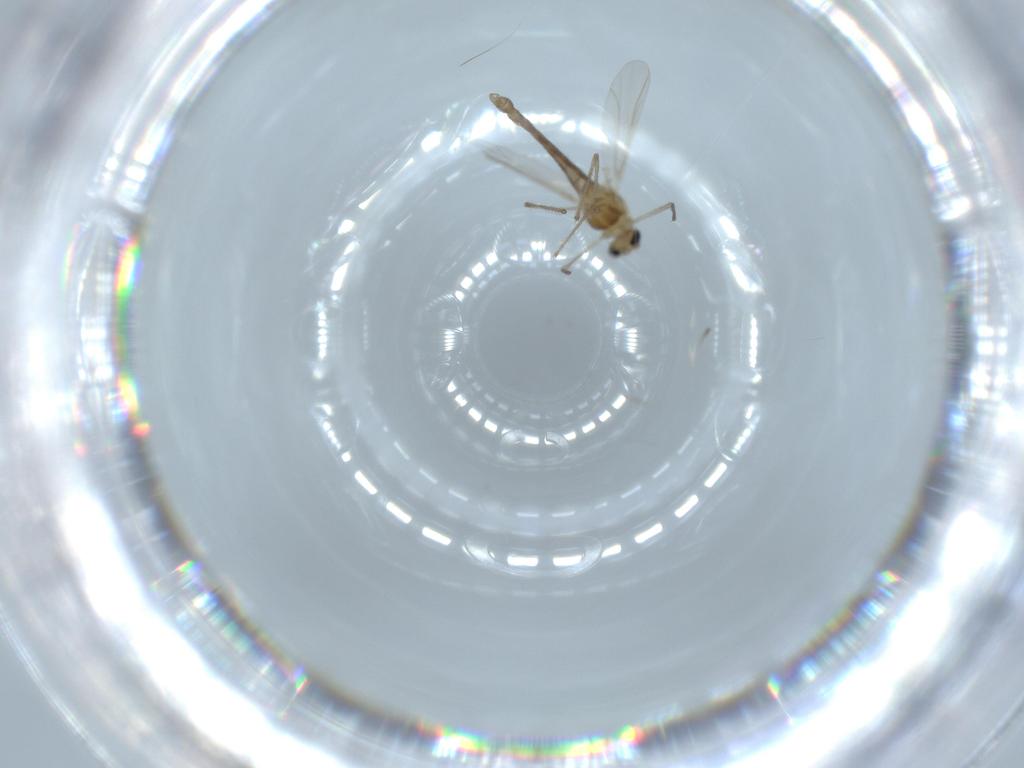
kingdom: Animalia
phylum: Arthropoda
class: Insecta
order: Diptera
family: Chironomidae
